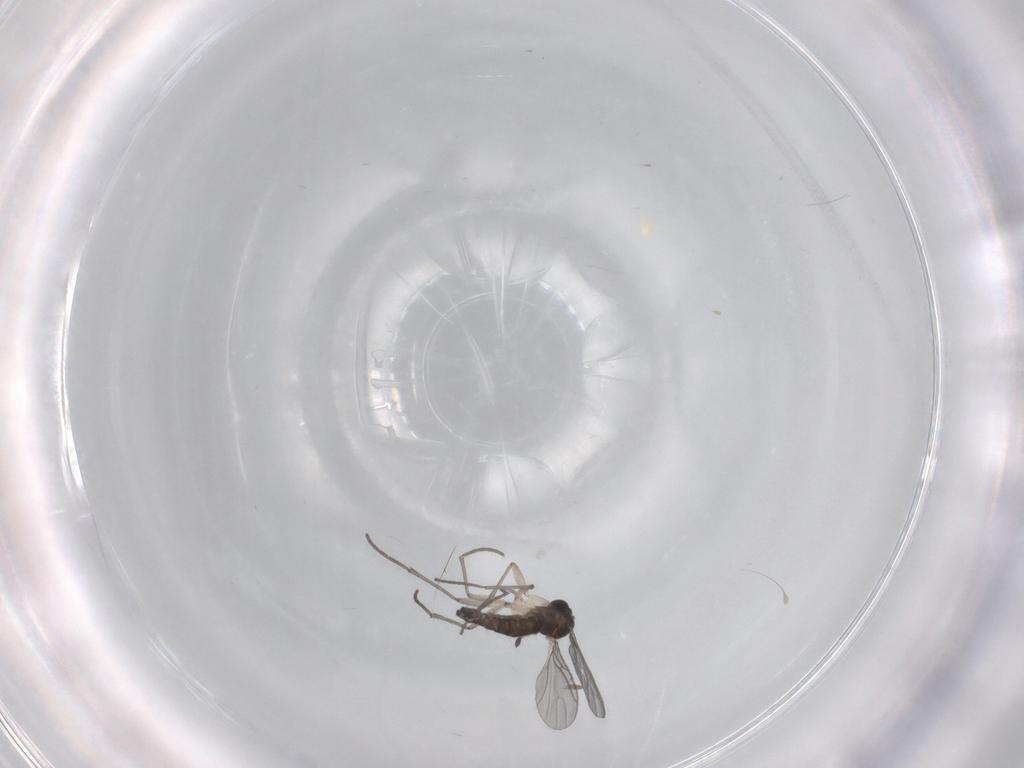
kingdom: Animalia
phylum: Arthropoda
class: Insecta
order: Diptera
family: Sciaridae
